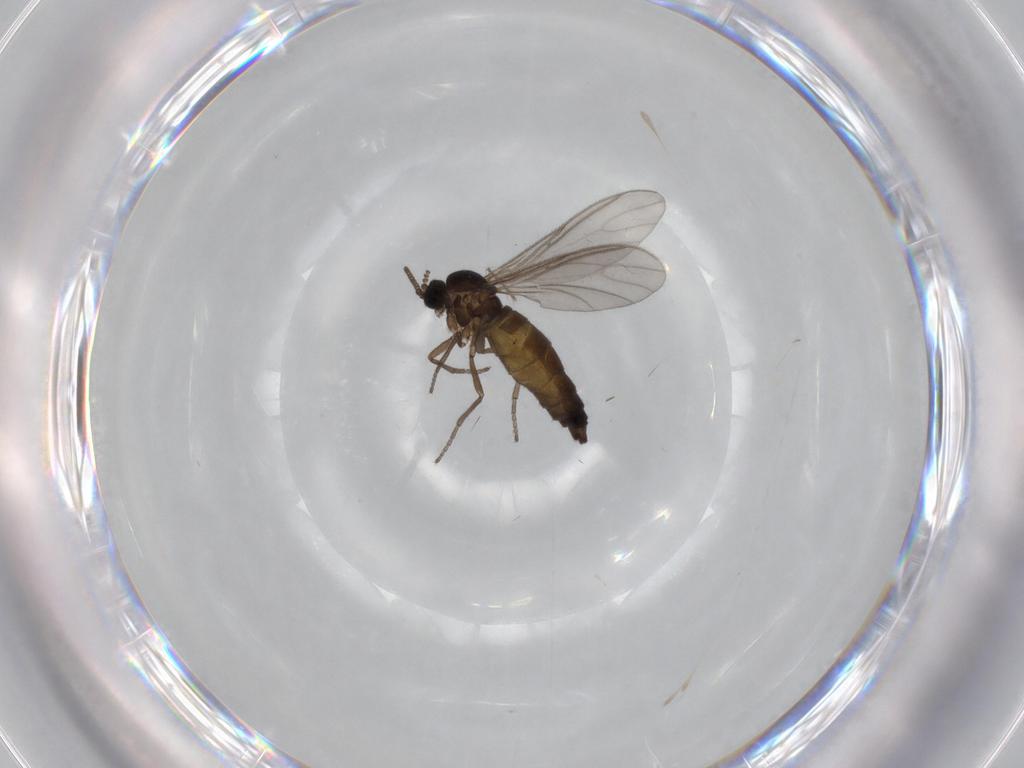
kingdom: Animalia
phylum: Arthropoda
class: Insecta
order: Diptera
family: Sciaridae
